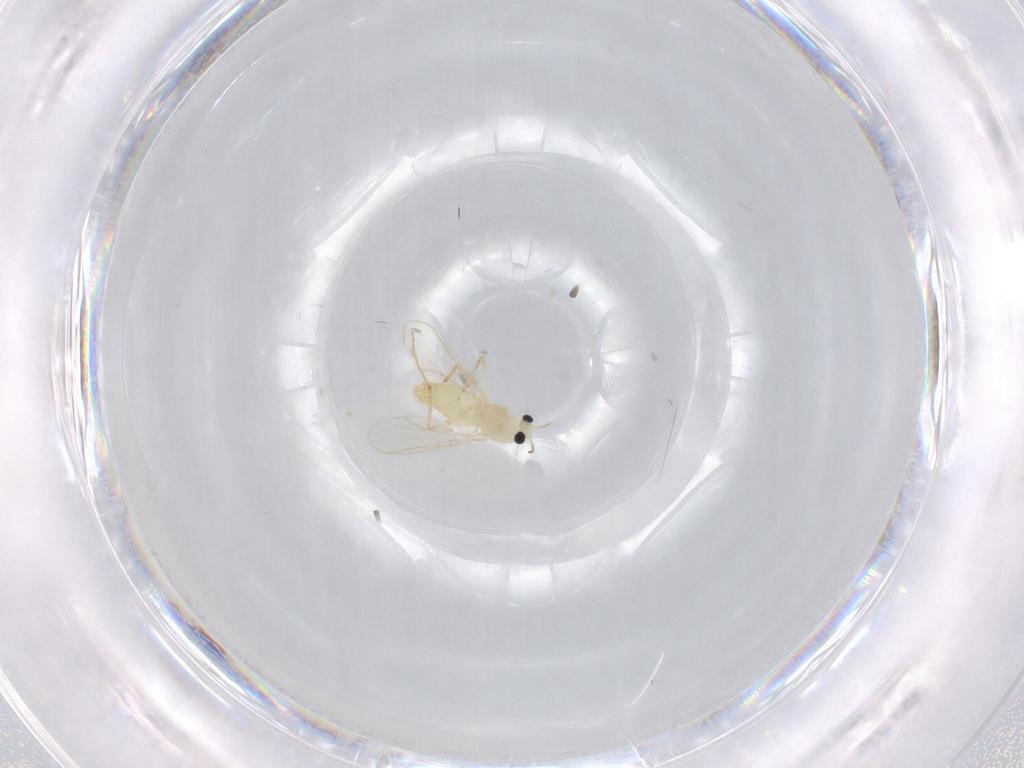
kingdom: Animalia
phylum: Arthropoda
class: Insecta
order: Diptera
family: Chironomidae
